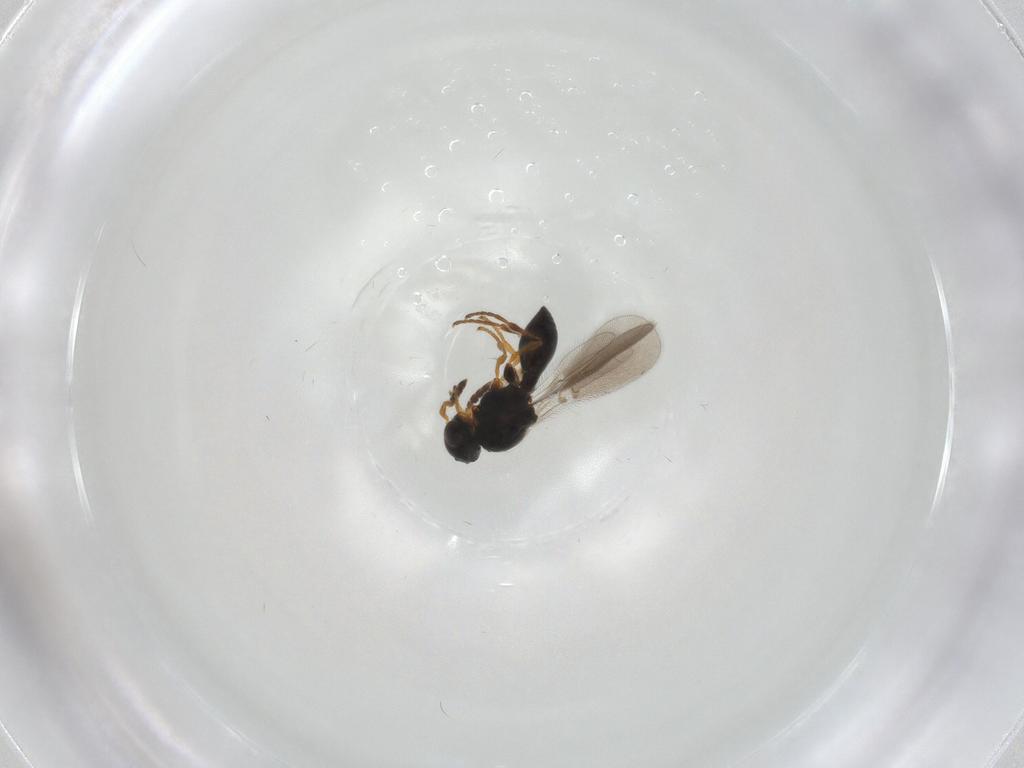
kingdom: Animalia
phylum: Arthropoda
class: Insecta
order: Hymenoptera
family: Platygastridae
